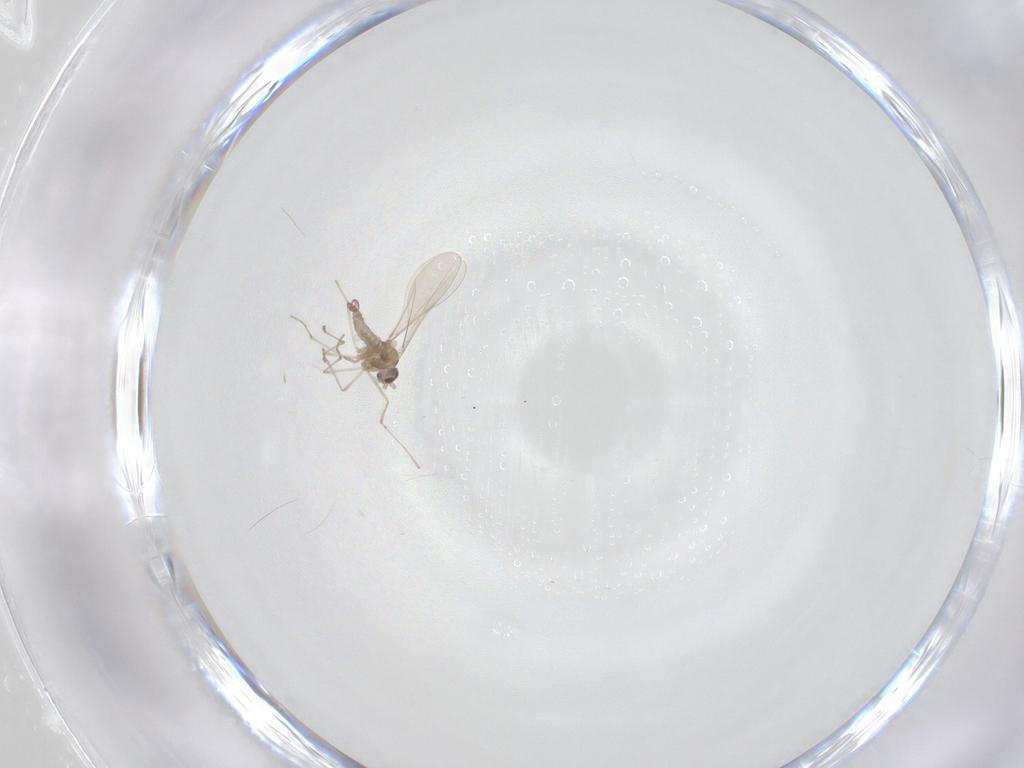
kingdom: Animalia
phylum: Arthropoda
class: Insecta
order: Diptera
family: Cecidomyiidae
